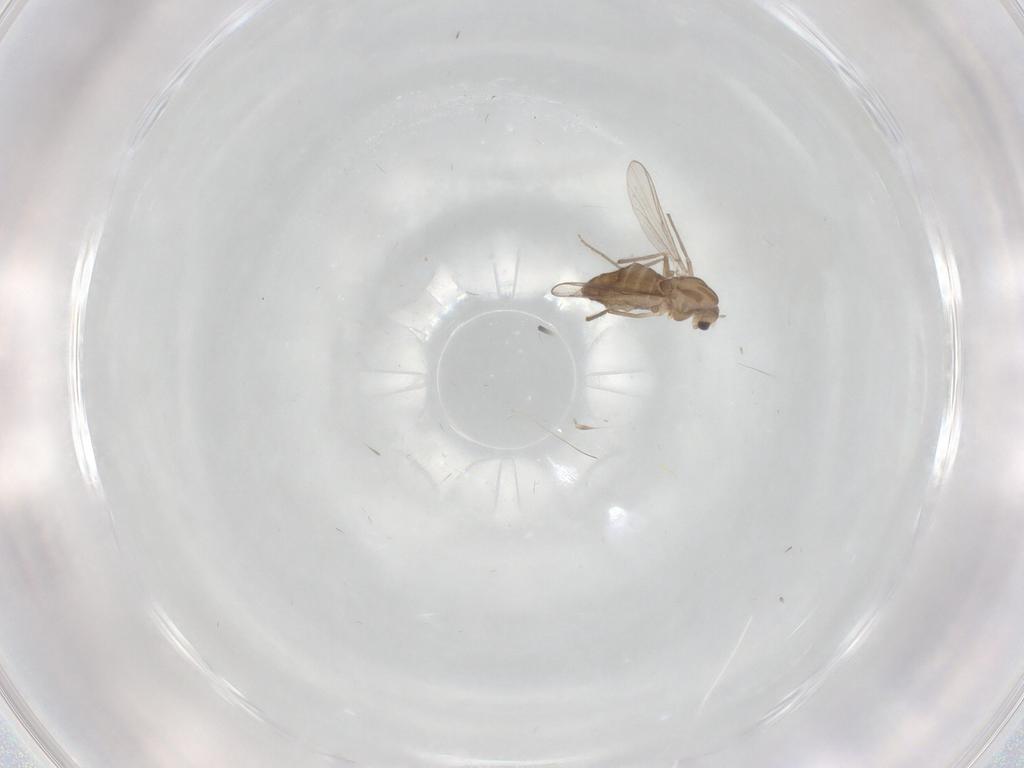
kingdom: Animalia
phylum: Arthropoda
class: Insecta
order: Diptera
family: Chironomidae
